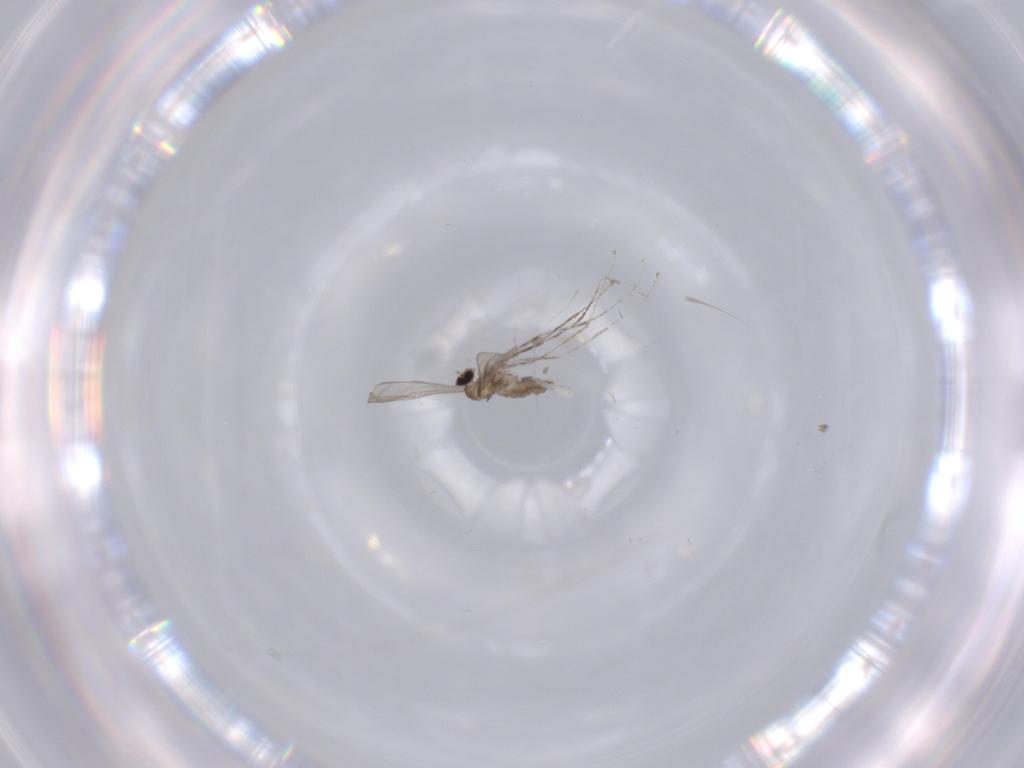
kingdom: Animalia
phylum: Arthropoda
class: Insecta
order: Diptera
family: Cecidomyiidae
